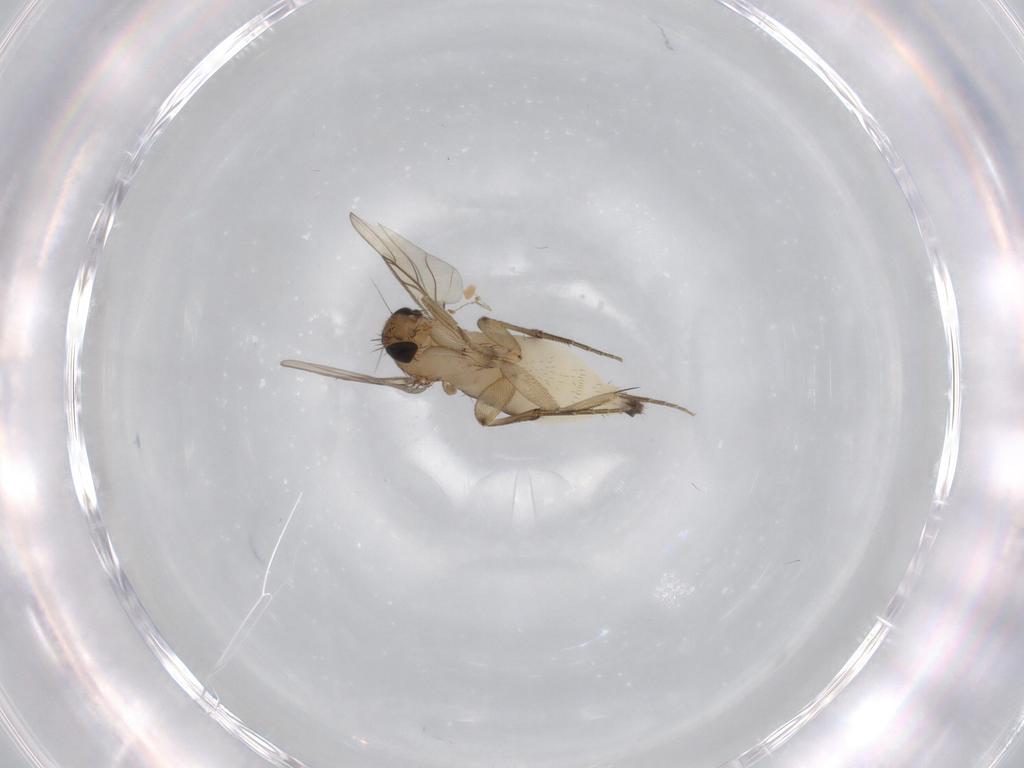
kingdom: Animalia
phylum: Arthropoda
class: Insecta
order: Diptera
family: Phoridae
